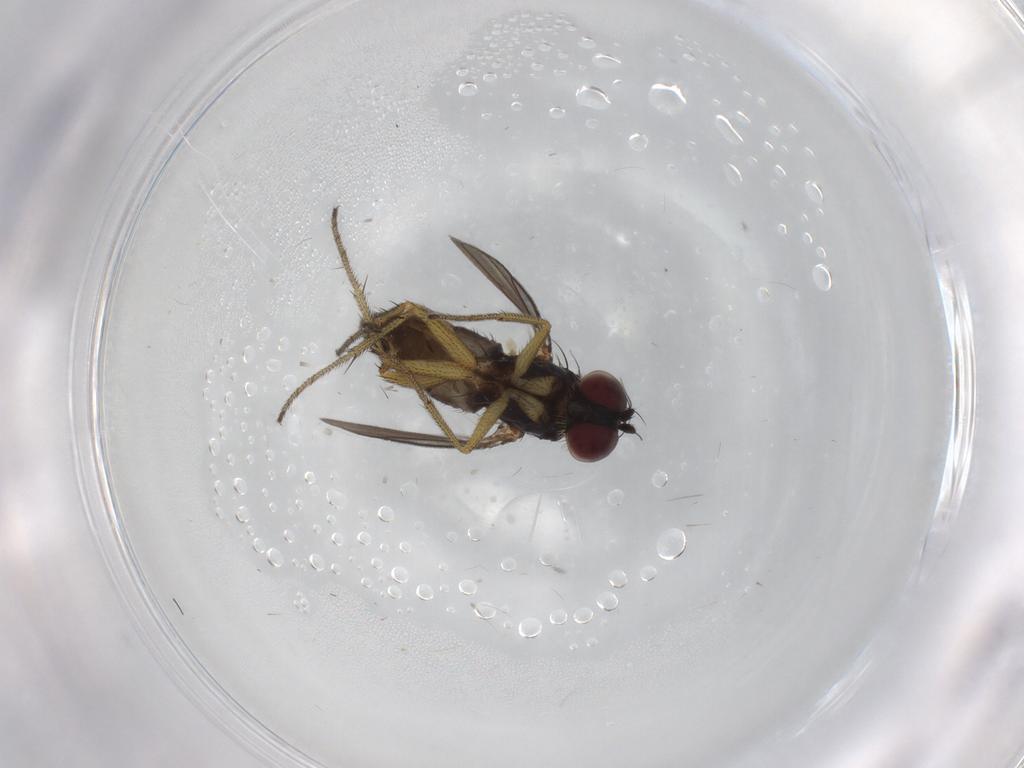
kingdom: Animalia
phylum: Arthropoda
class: Insecta
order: Diptera
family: Dolichopodidae
